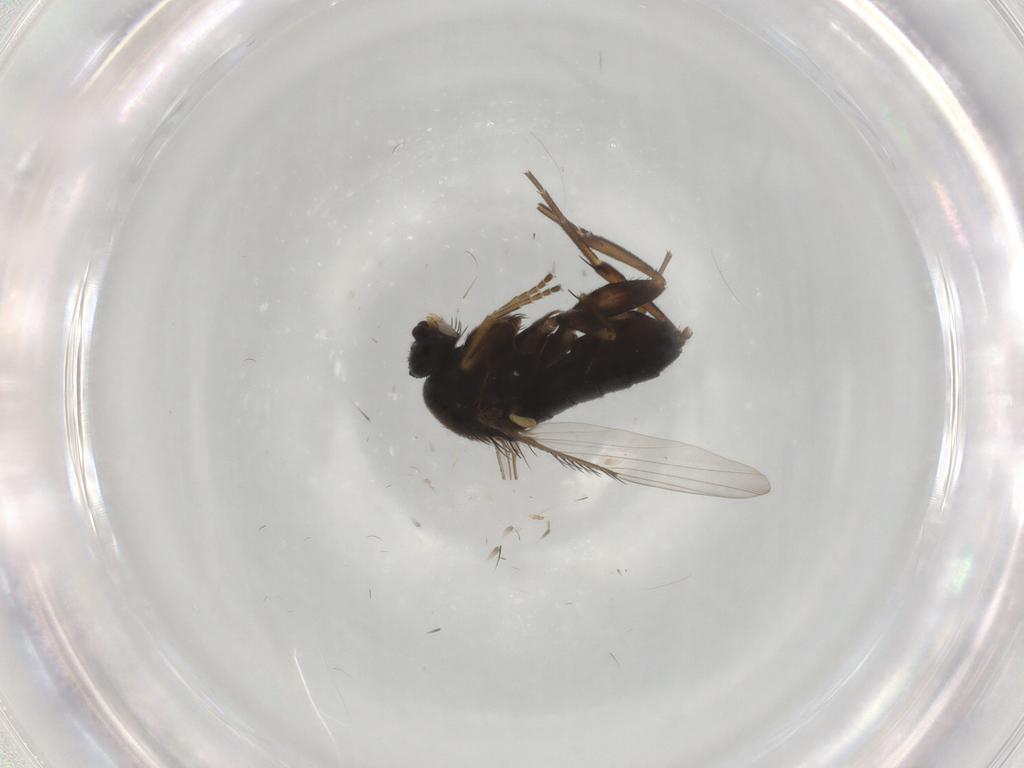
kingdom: Animalia
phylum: Arthropoda
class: Insecta
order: Diptera
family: Phoridae
